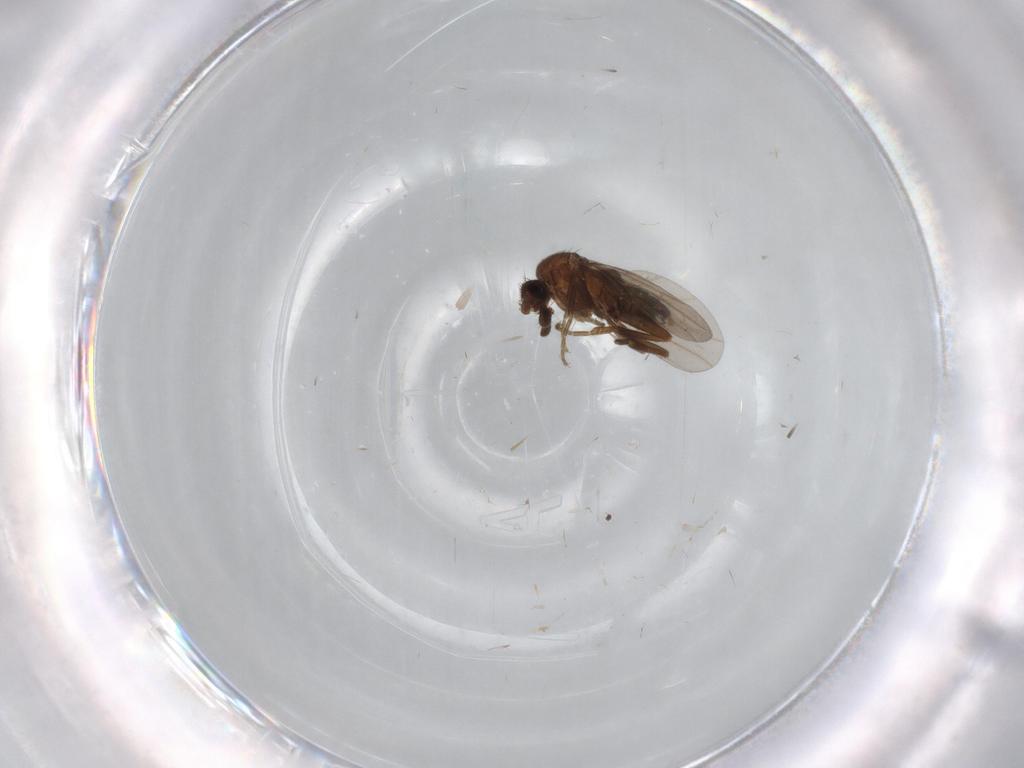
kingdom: Animalia
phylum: Arthropoda
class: Insecta
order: Diptera
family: Phoridae
